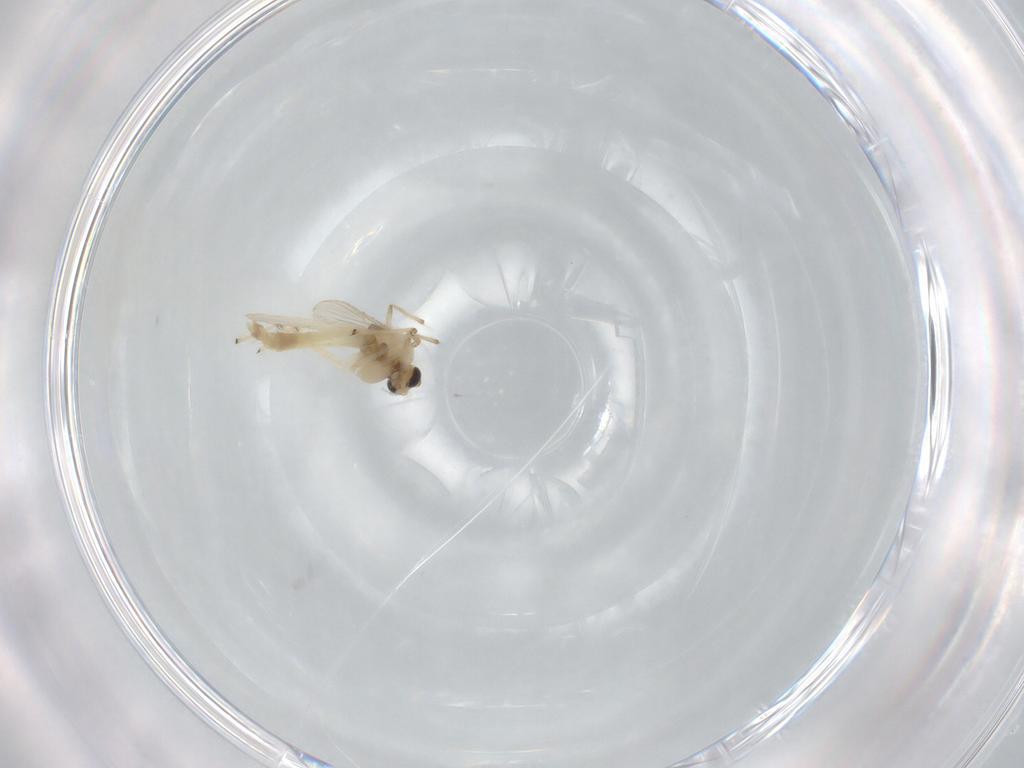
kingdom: Animalia
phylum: Arthropoda
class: Insecta
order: Diptera
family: Chironomidae
